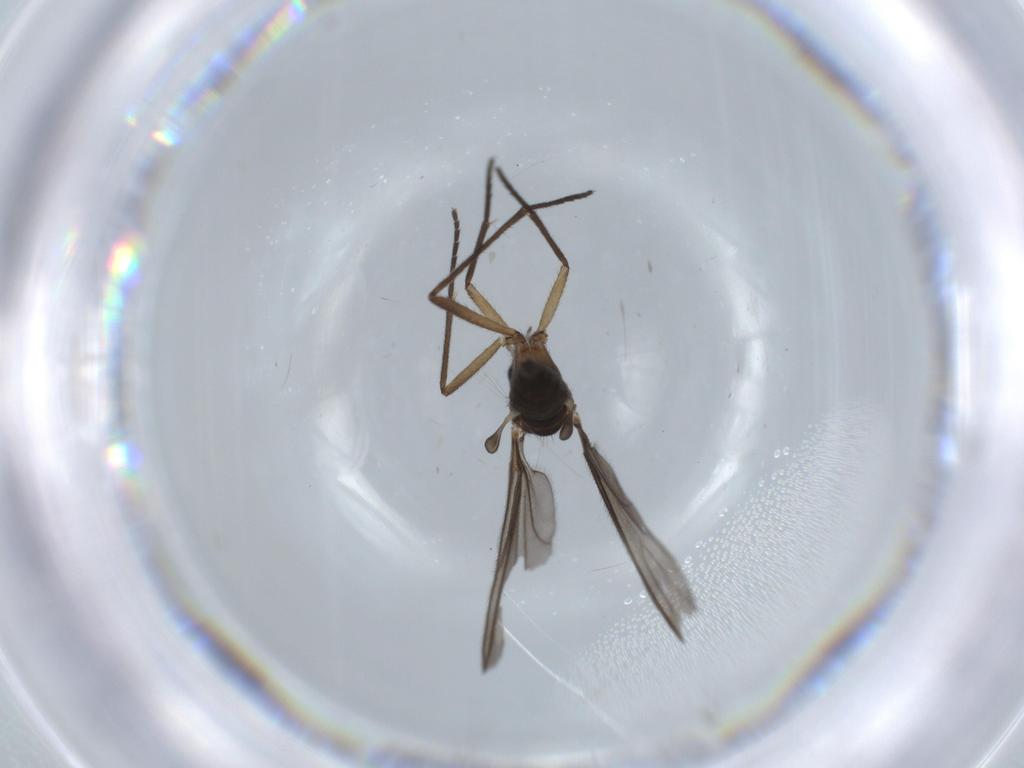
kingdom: Animalia
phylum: Arthropoda
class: Insecta
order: Diptera
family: Sciaridae
